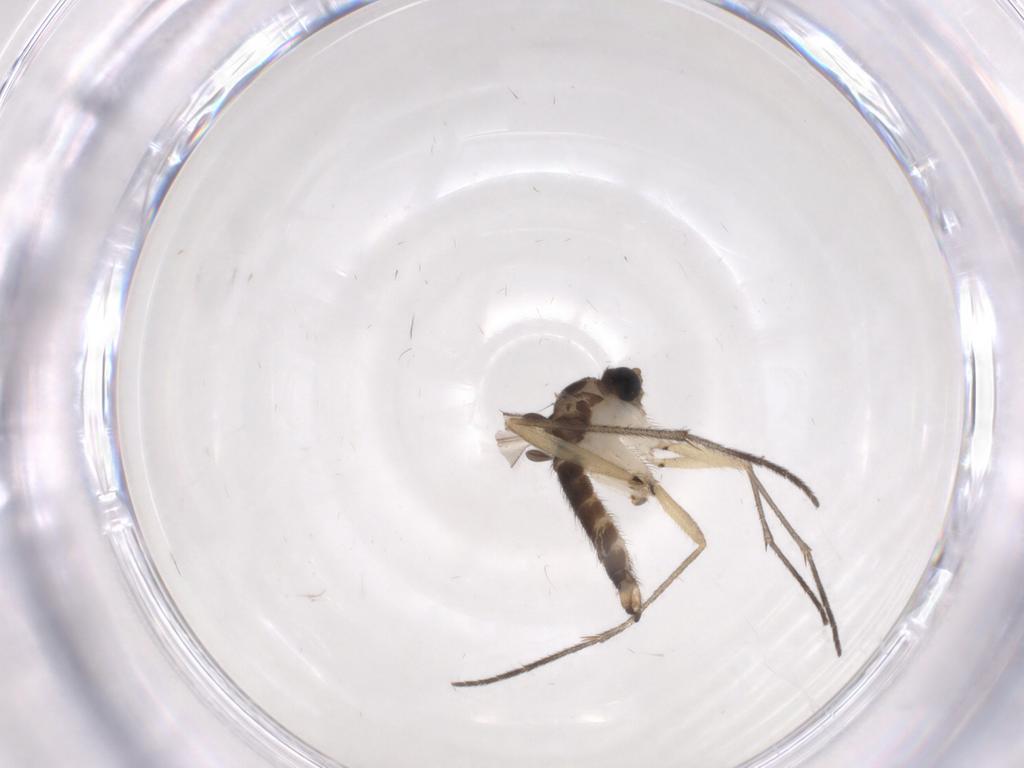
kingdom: Animalia
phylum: Arthropoda
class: Insecta
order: Diptera
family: Sciaridae
